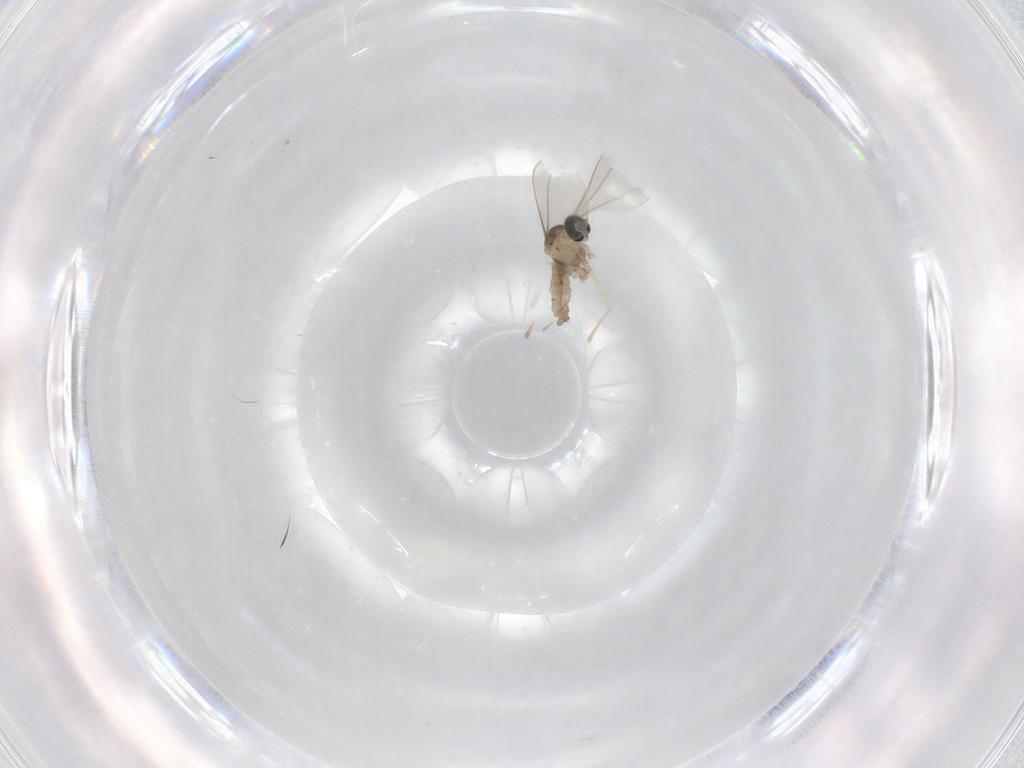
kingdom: Animalia
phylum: Arthropoda
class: Insecta
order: Diptera
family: Cecidomyiidae
